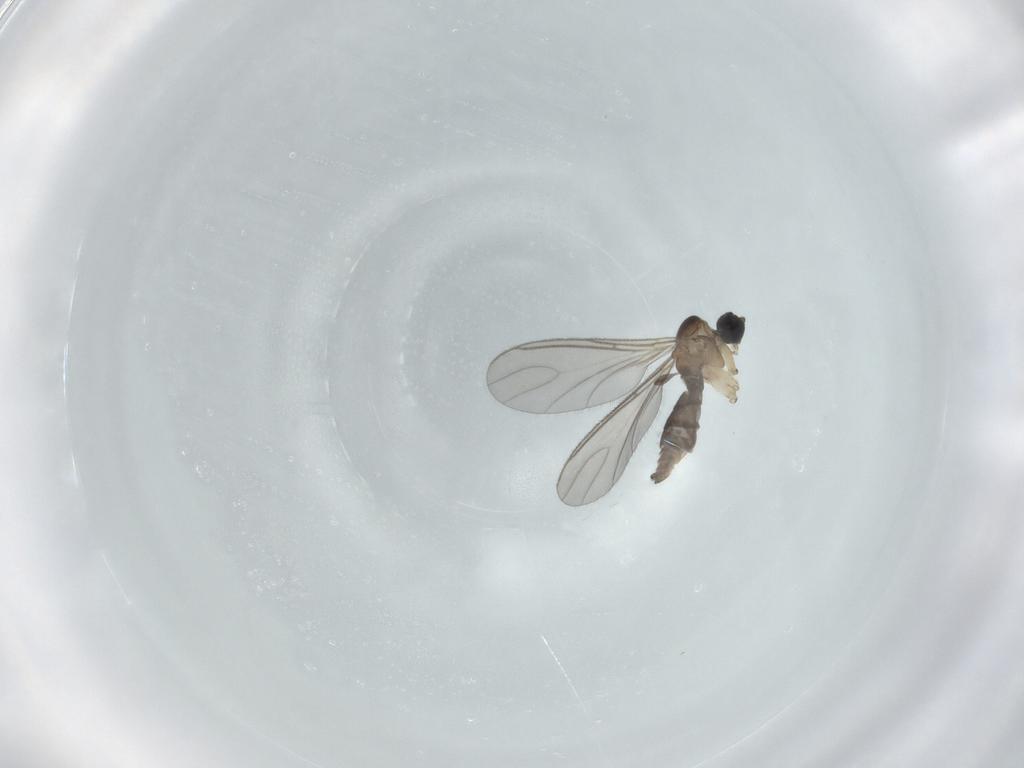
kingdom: Animalia
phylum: Arthropoda
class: Insecta
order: Diptera
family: Sciaridae
